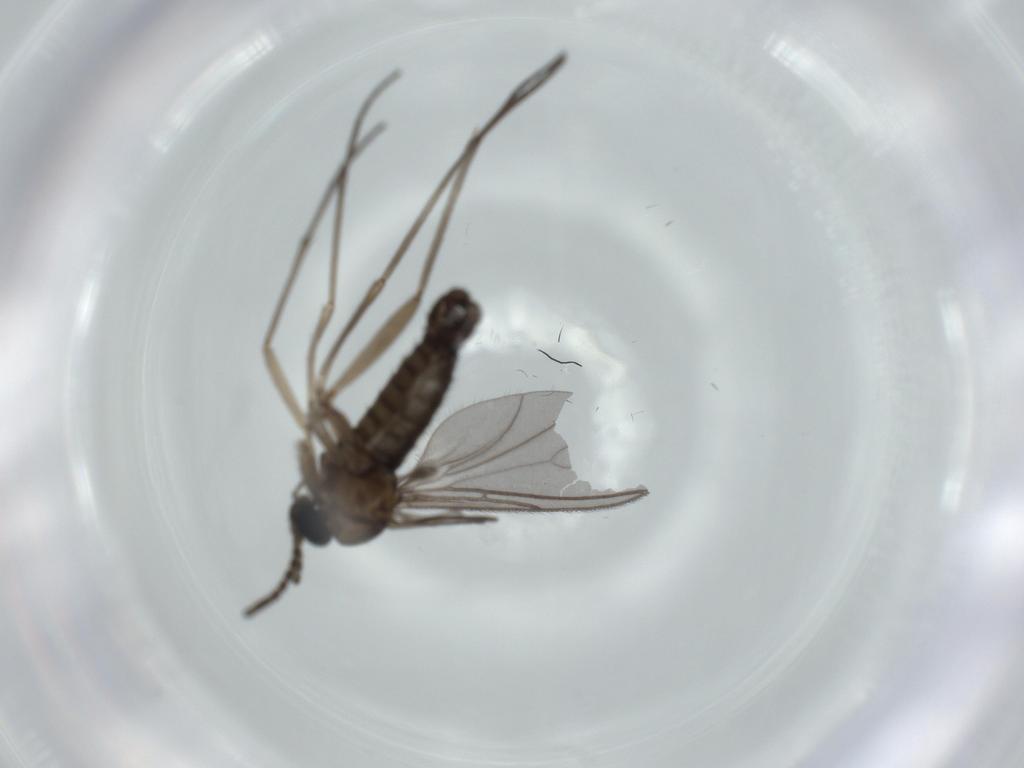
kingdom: Animalia
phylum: Arthropoda
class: Insecta
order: Diptera
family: Sciaridae
